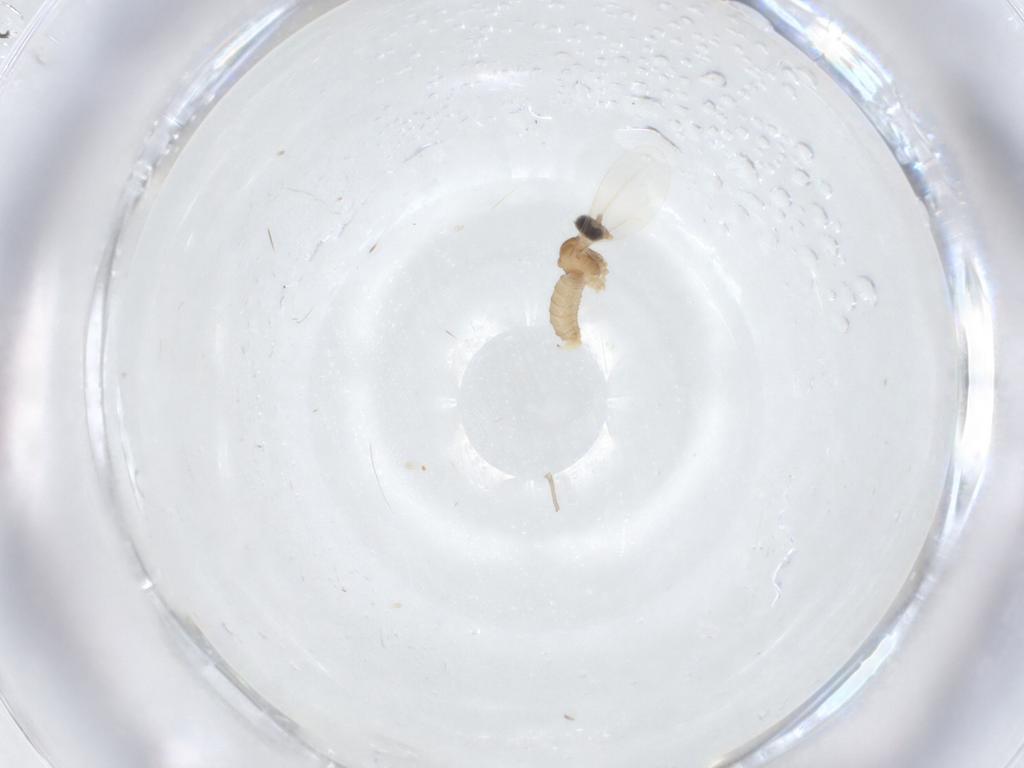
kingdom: Animalia
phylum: Arthropoda
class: Insecta
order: Diptera
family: Cecidomyiidae
